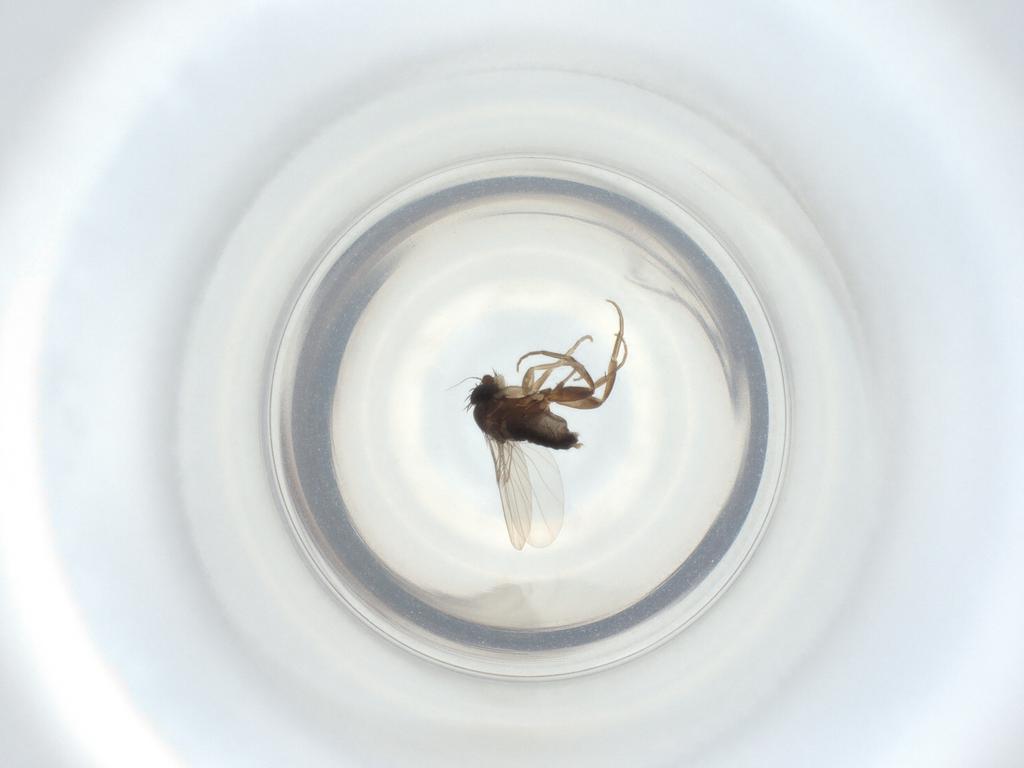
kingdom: Animalia
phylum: Arthropoda
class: Insecta
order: Diptera
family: Phoridae
